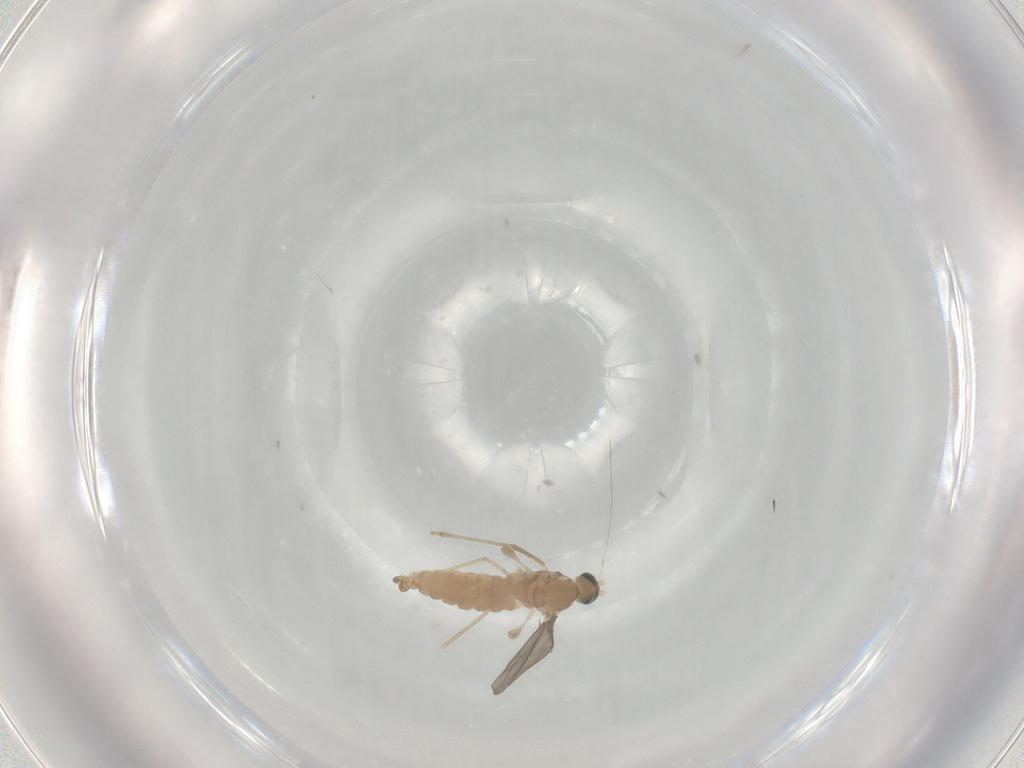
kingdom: Animalia
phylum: Arthropoda
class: Insecta
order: Diptera
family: Cecidomyiidae
